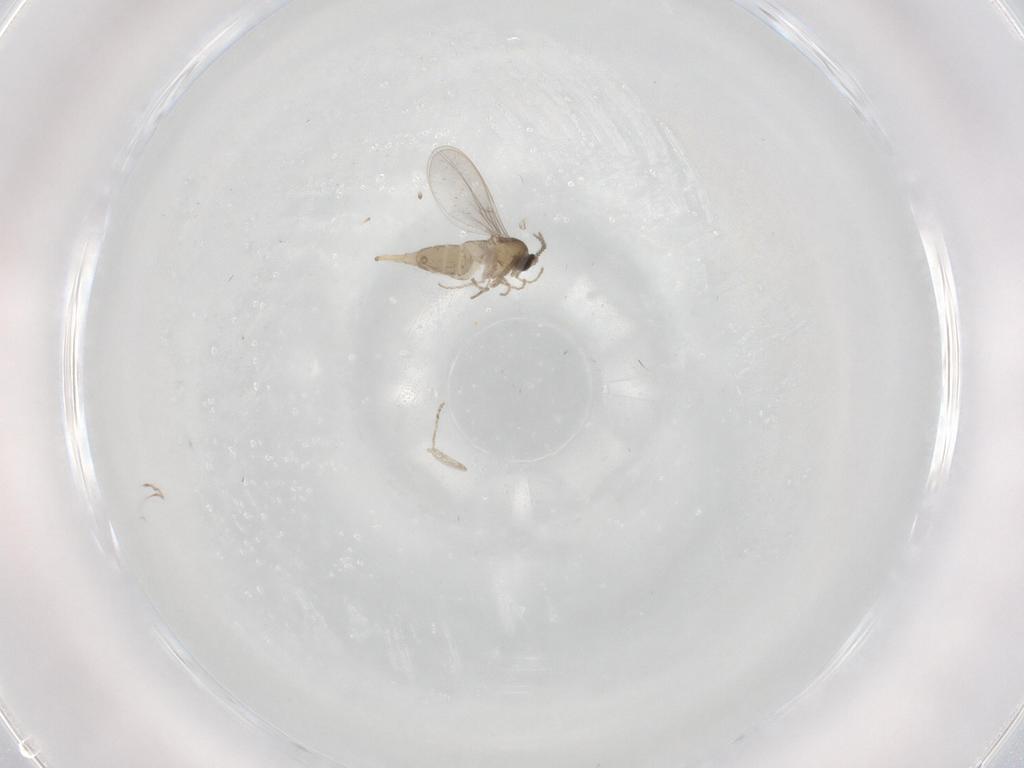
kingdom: Animalia
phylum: Arthropoda
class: Insecta
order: Diptera
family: Cecidomyiidae
